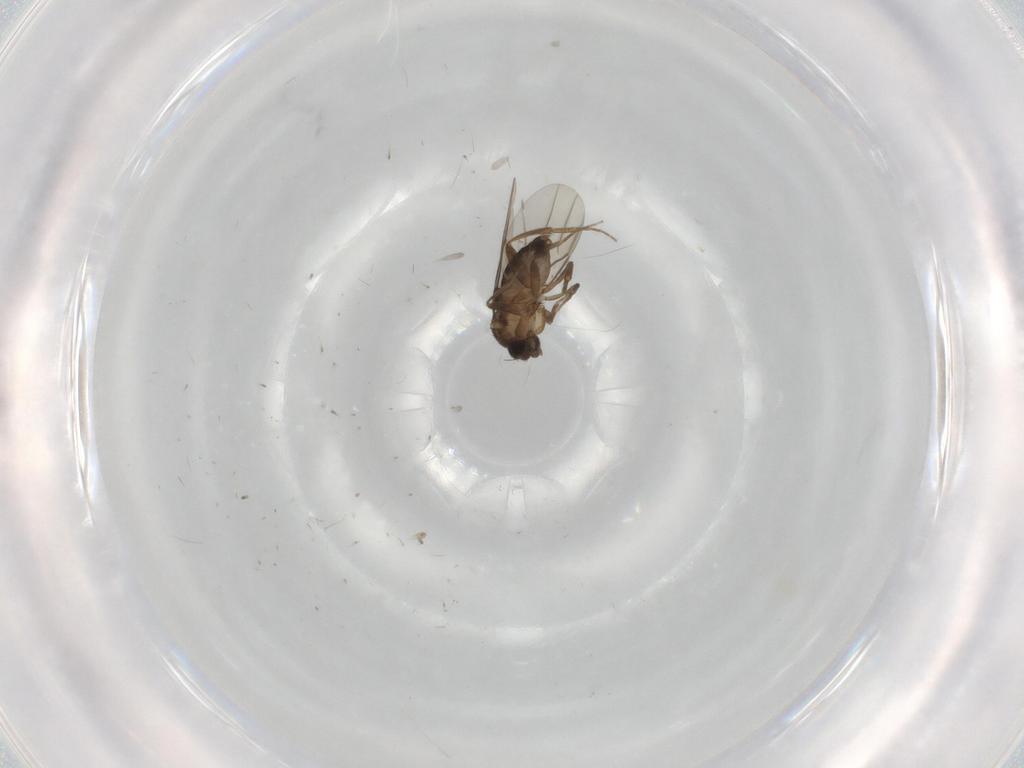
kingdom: Animalia
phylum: Arthropoda
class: Insecta
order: Diptera
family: Phoridae
